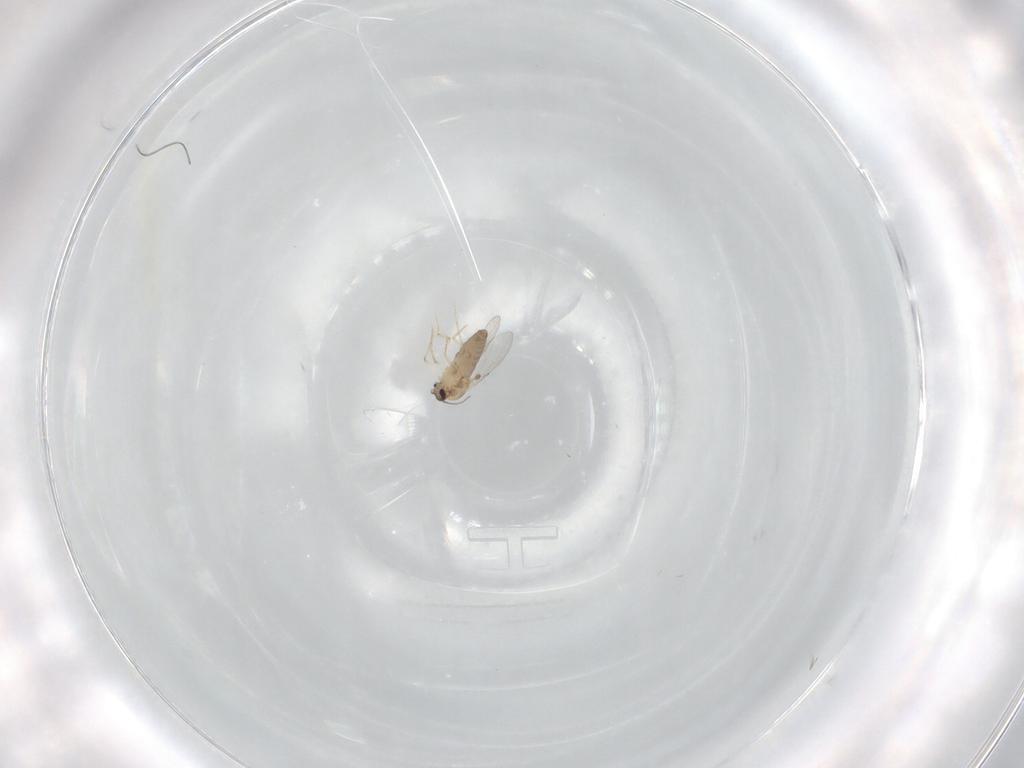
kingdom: Animalia
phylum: Arthropoda
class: Insecta
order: Diptera
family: Ceratopogonidae
